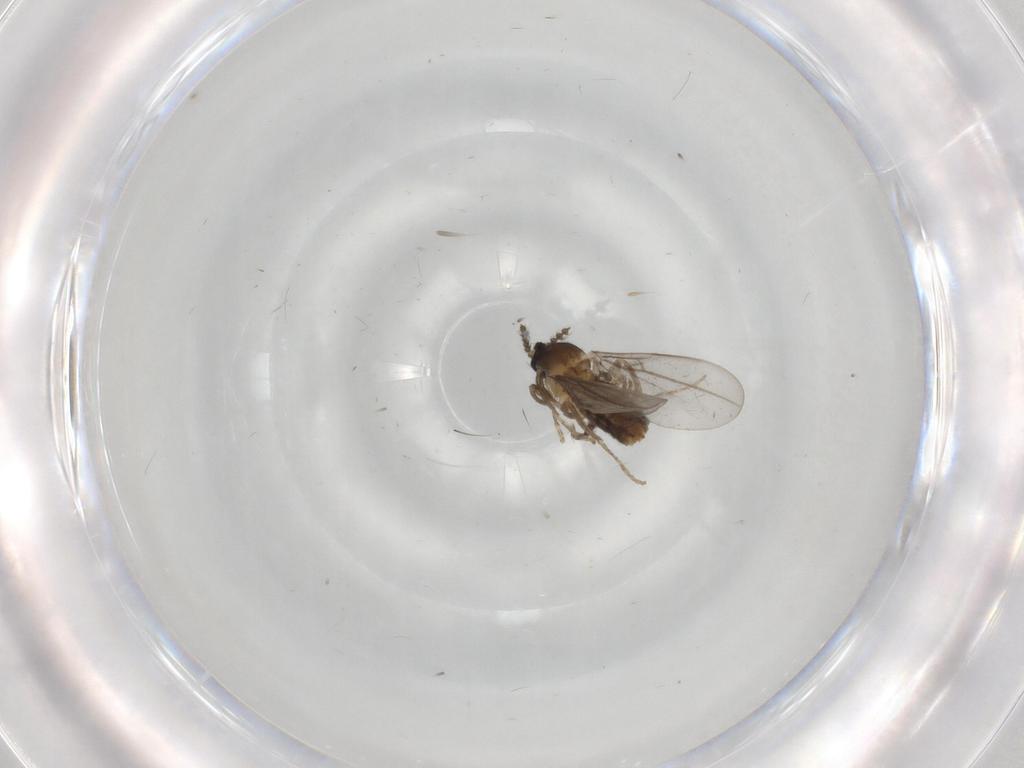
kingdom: Animalia
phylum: Arthropoda
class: Insecta
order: Diptera
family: Cecidomyiidae
